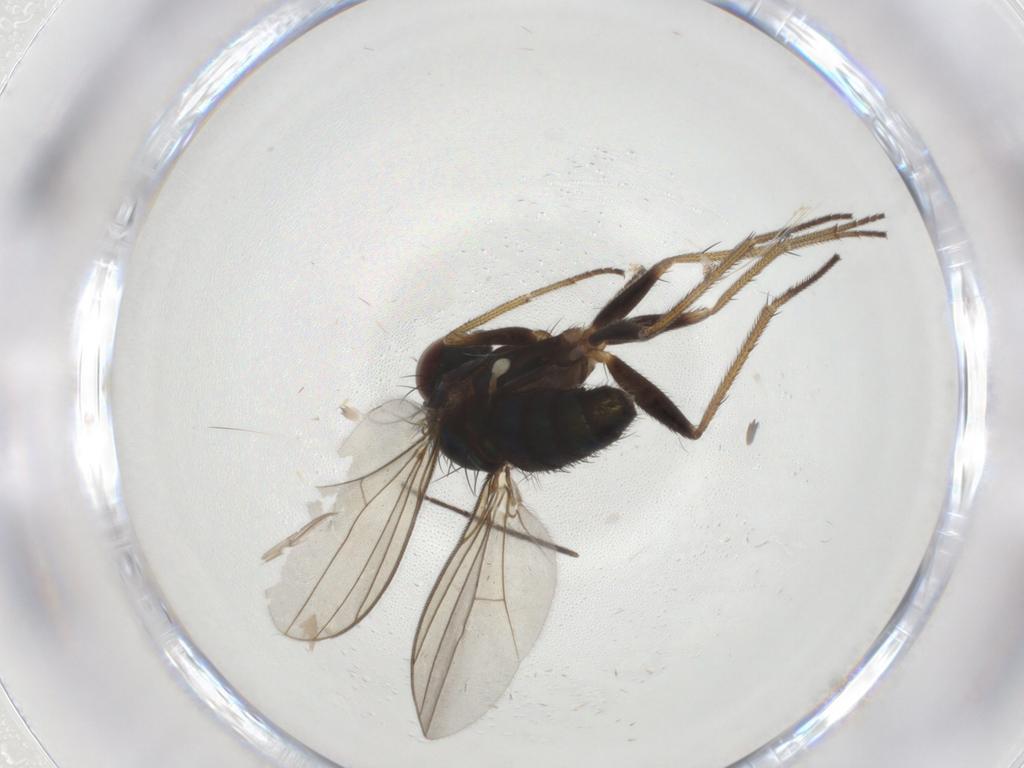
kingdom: Animalia
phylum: Arthropoda
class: Insecta
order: Diptera
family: Chironomidae
